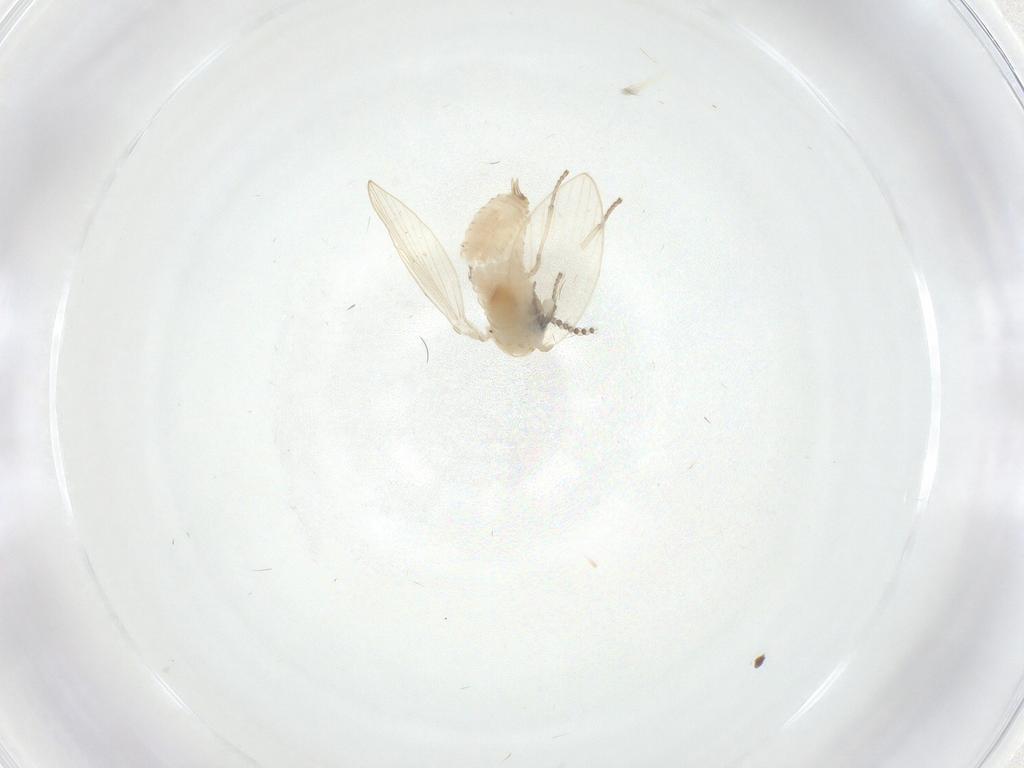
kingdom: Animalia
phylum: Arthropoda
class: Insecta
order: Diptera
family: Psychodidae
